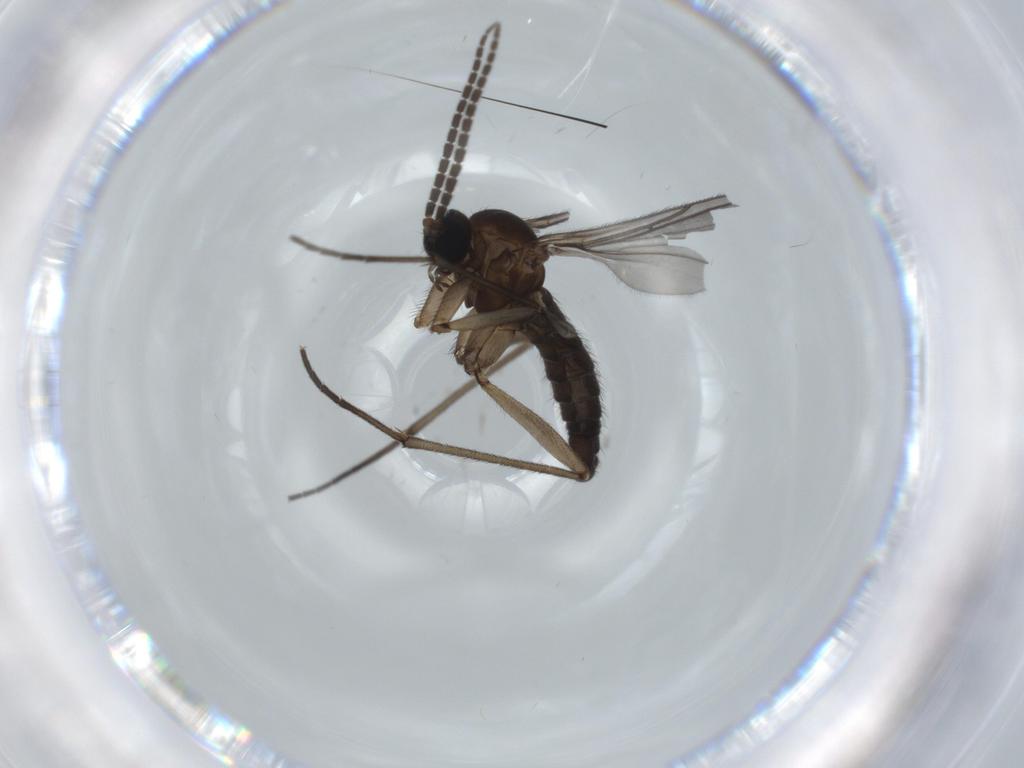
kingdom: Animalia
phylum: Arthropoda
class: Insecta
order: Diptera
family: Sciaridae
